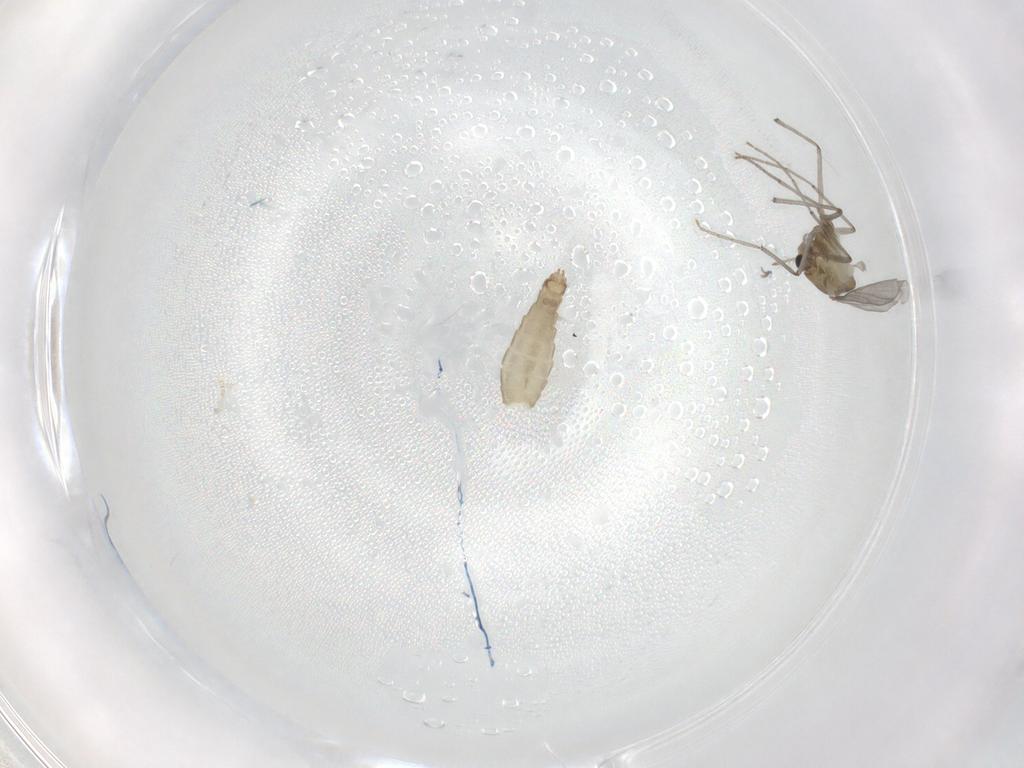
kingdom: Animalia
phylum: Arthropoda
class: Insecta
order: Diptera
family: Chironomidae
